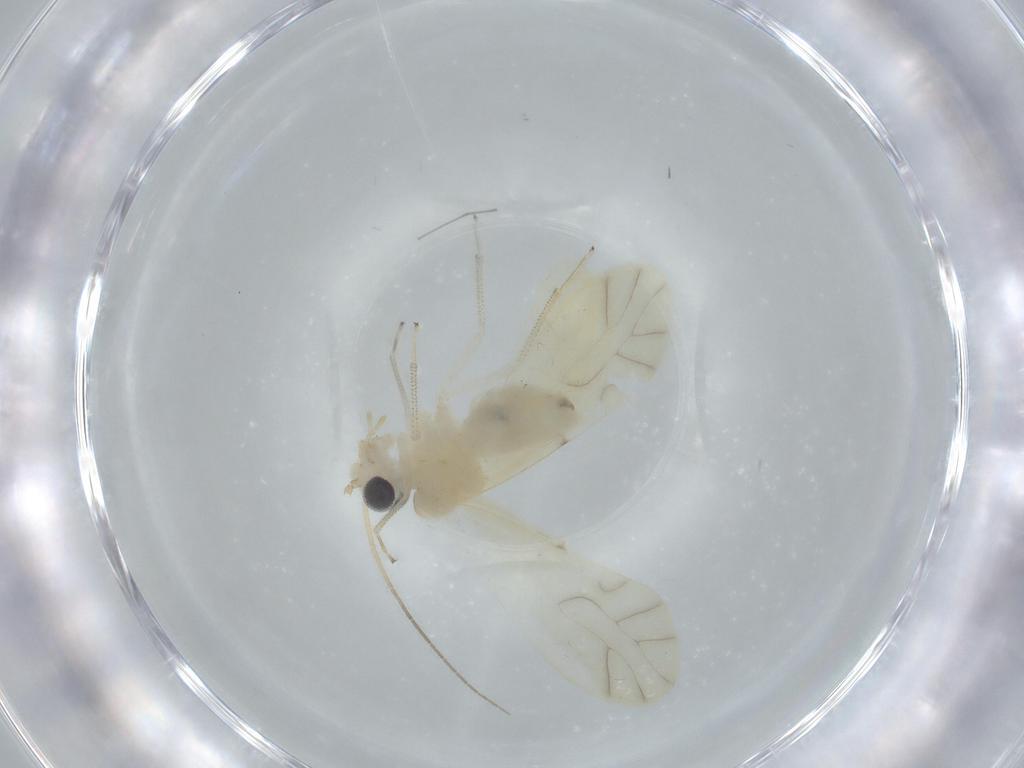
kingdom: Animalia
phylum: Arthropoda
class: Insecta
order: Psocodea
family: Caeciliusidae
